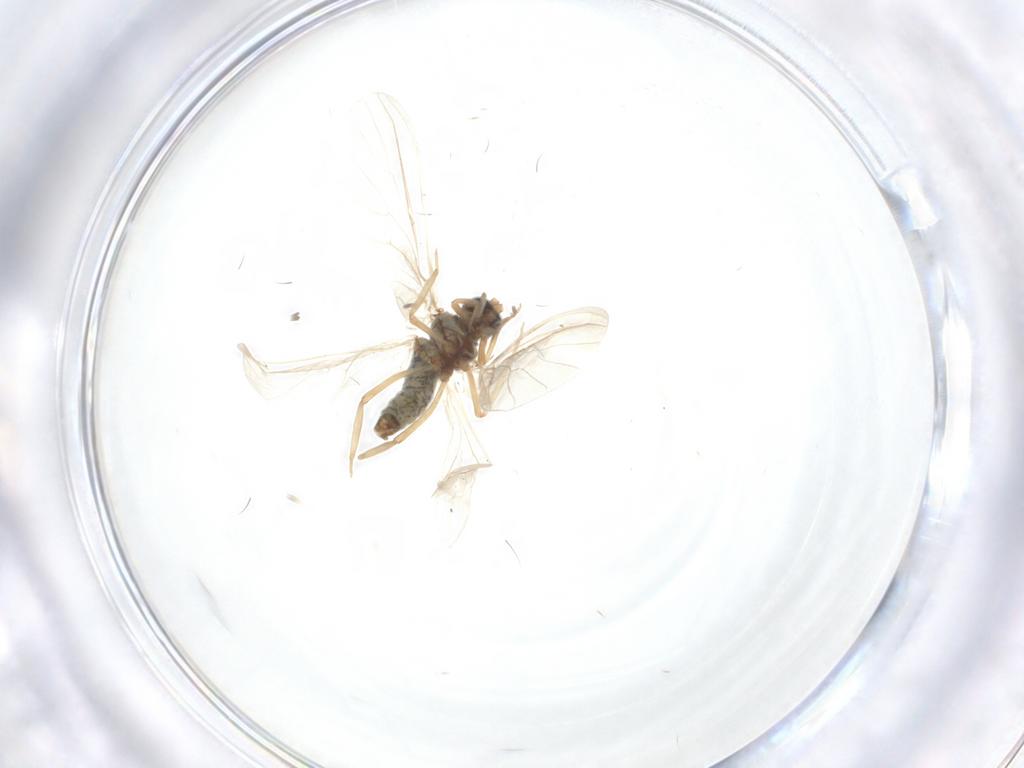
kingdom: Animalia
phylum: Arthropoda
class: Insecta
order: Neuroptera
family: Coniopterygidae
